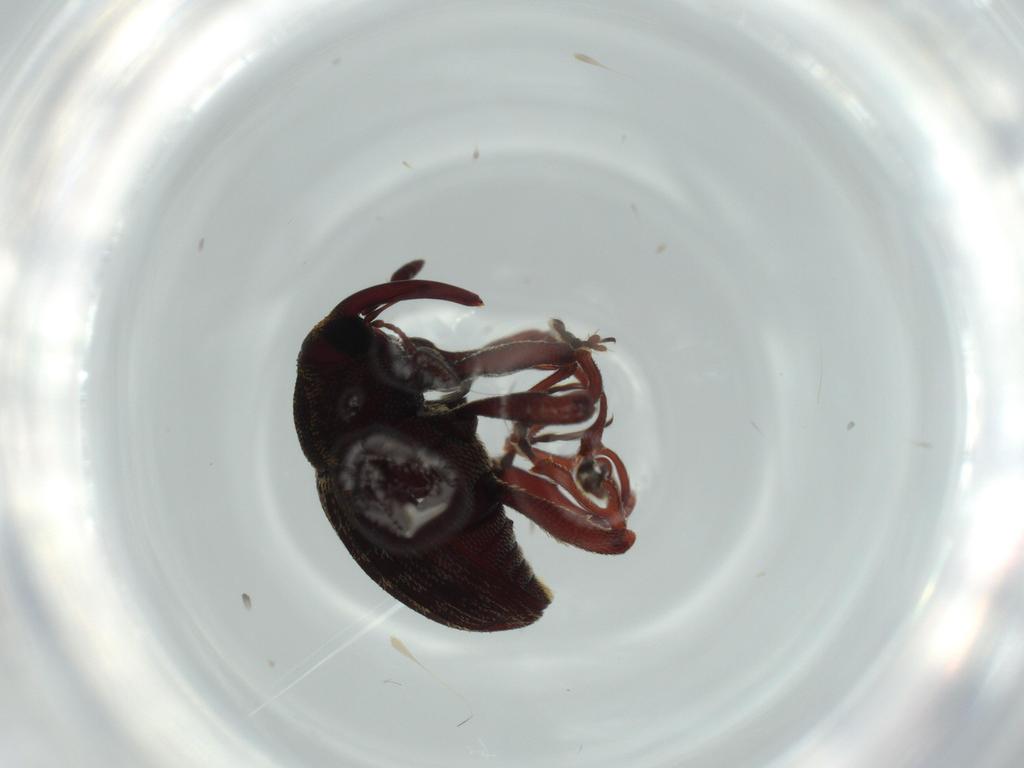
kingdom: Animalia
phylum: Arthropoda
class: Insecta
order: Coleoptera
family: Curculionidae
